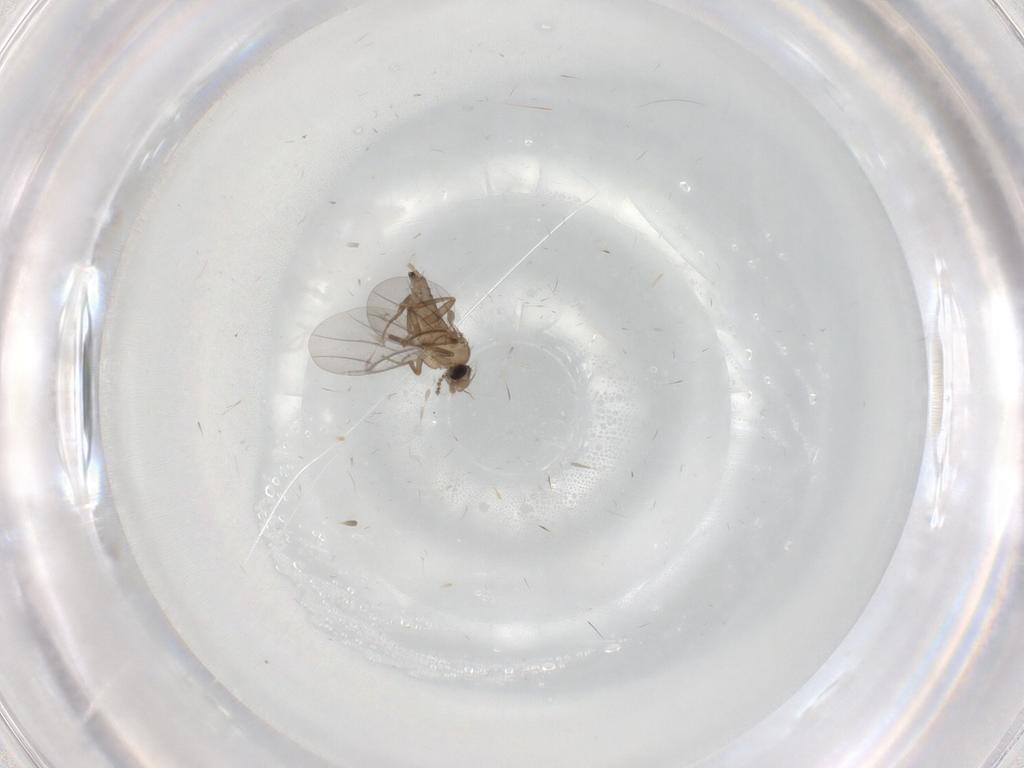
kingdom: Animalia
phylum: Arthropoda
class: Insecta
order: Diptera
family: Cecidomyiidae
